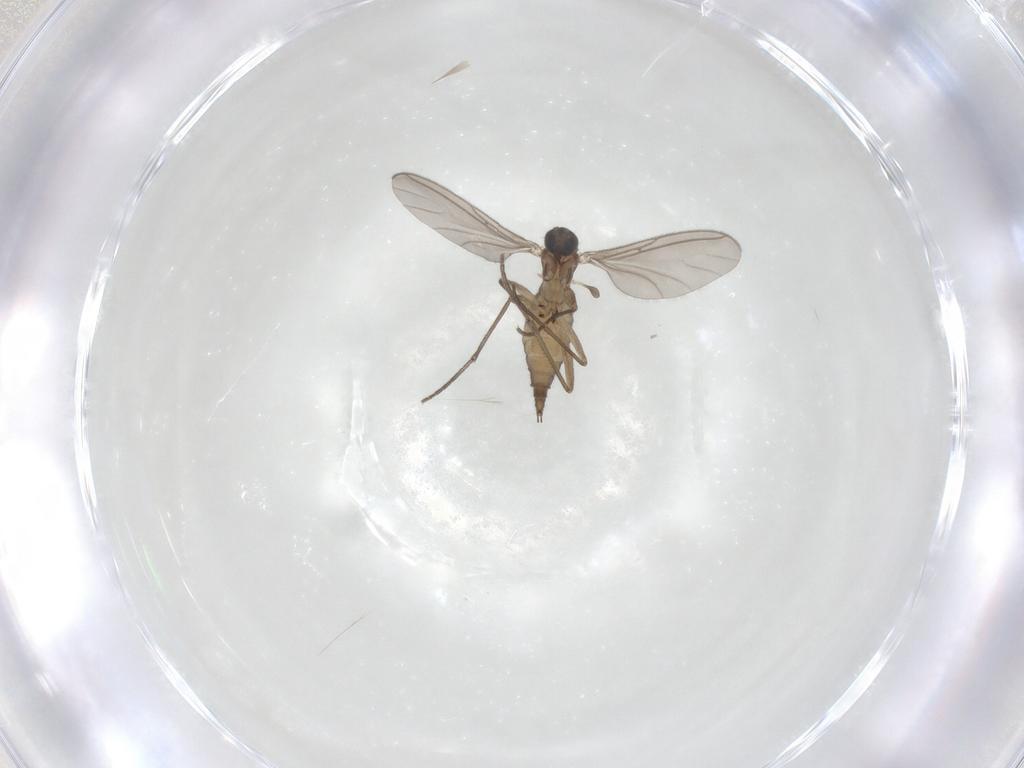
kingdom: Animalia
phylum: Arthropoda
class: Insecta
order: Diptera
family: Sciaridae
